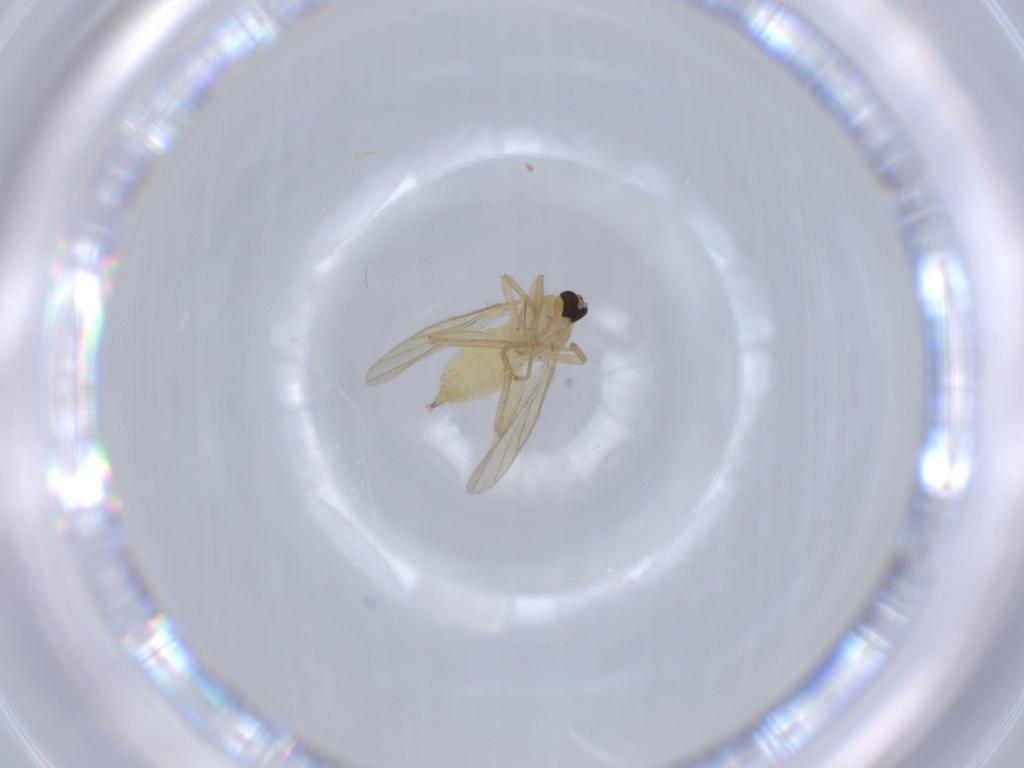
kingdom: Animalia
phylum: Arthropoda
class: Insecta
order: Diptera
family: Hybotidae
